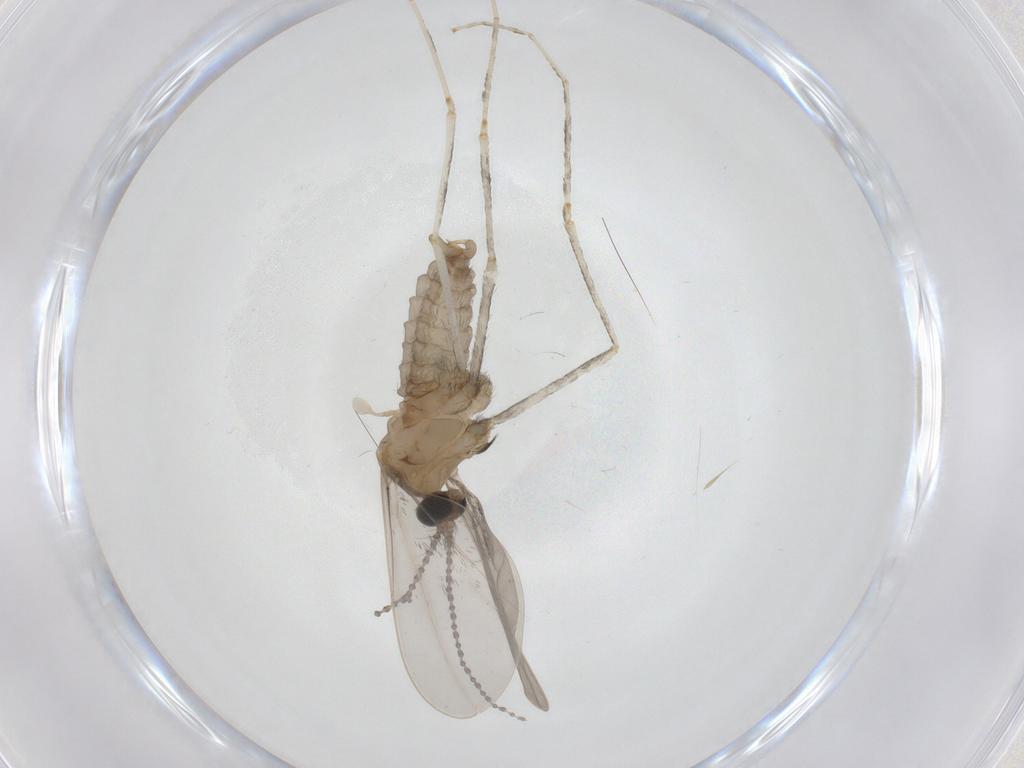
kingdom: Animalia
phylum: Arthropoda
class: Insecta
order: Diptera
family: Cecidomyiidae
